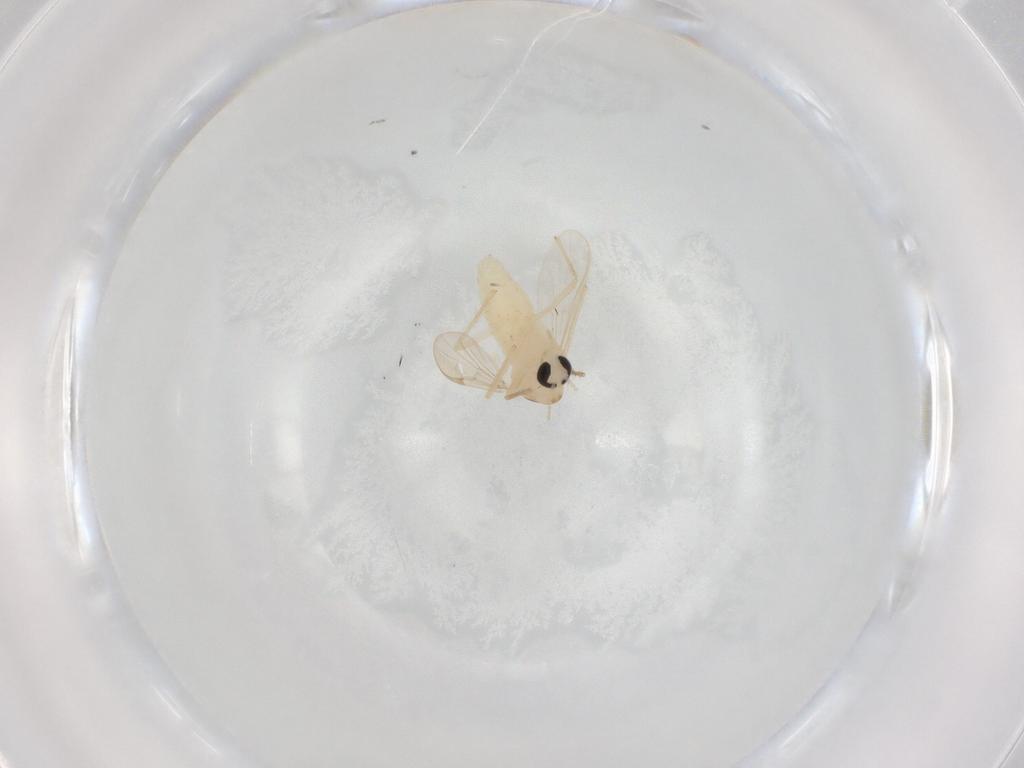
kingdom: Animalia
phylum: Arthropoda
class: Insecta
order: Diptera
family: Chironomidae
